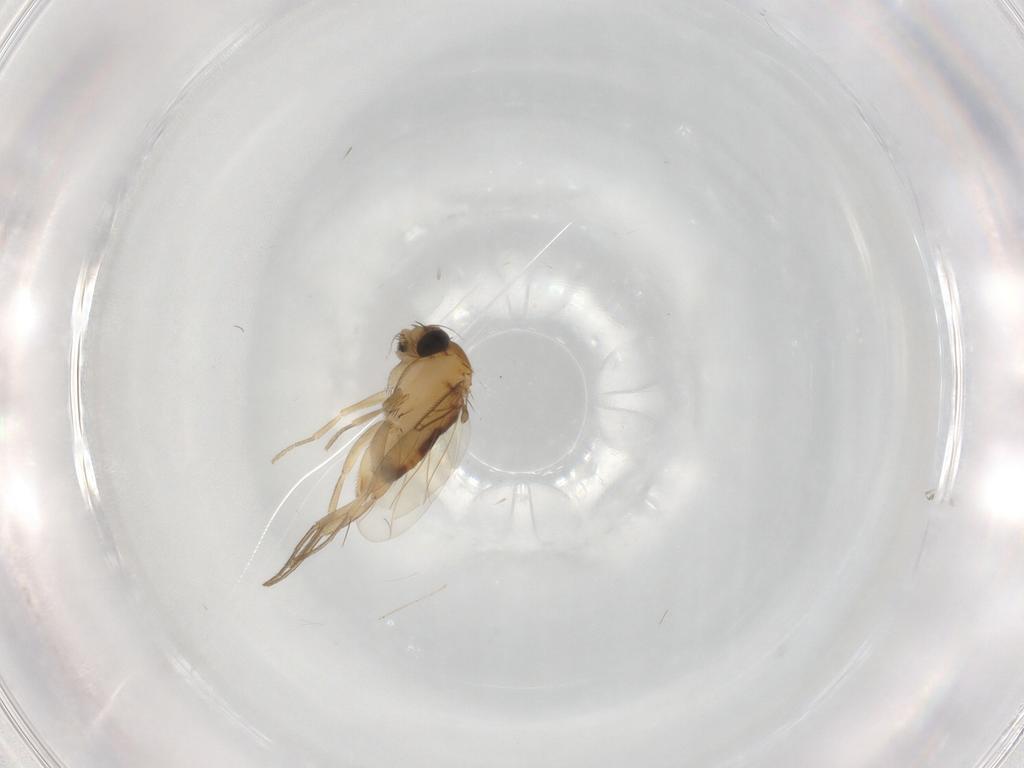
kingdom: Animalia
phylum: Arthropoda
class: Insecta
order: Diptera
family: Phoridae
